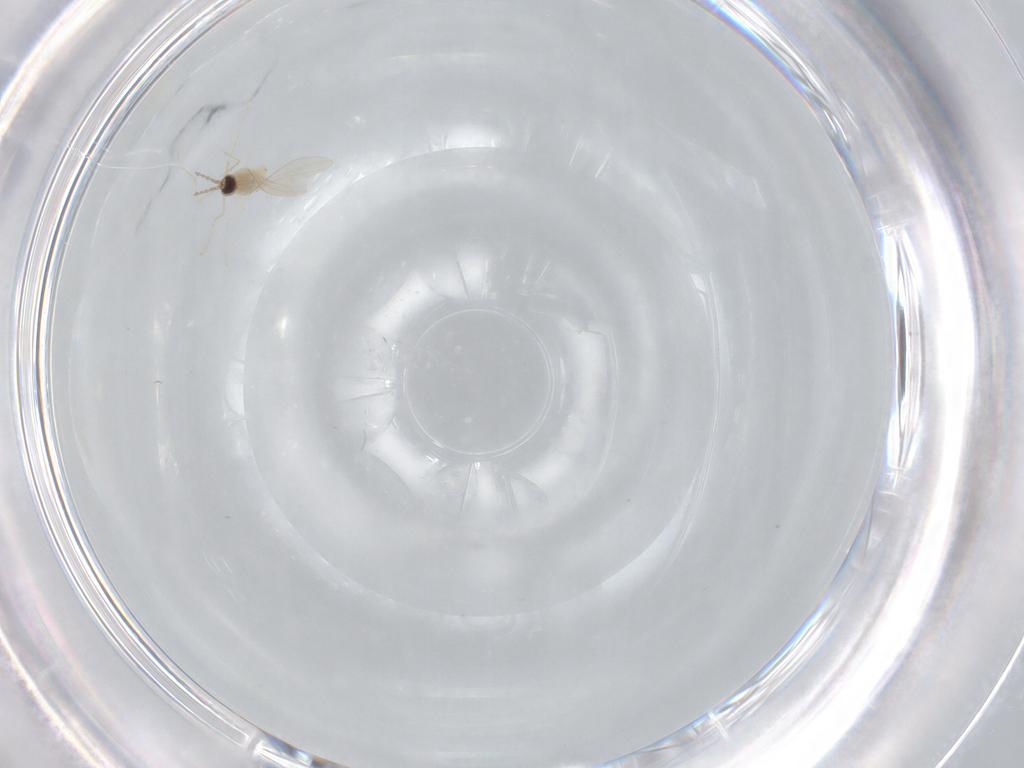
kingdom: Animalia
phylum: Arthropoda
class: Insecta
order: Diptera
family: Cecidomyiidae
